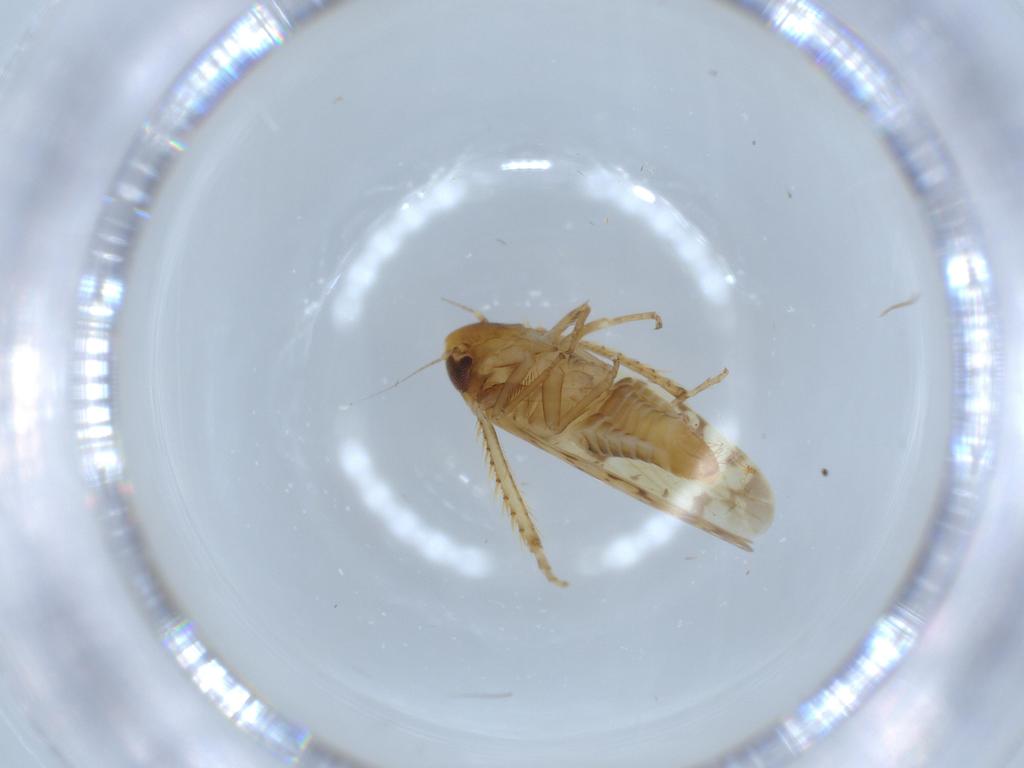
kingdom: Animalia
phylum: Arthropoda
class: Insecta
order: Hemiptera
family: Cicadellidae
